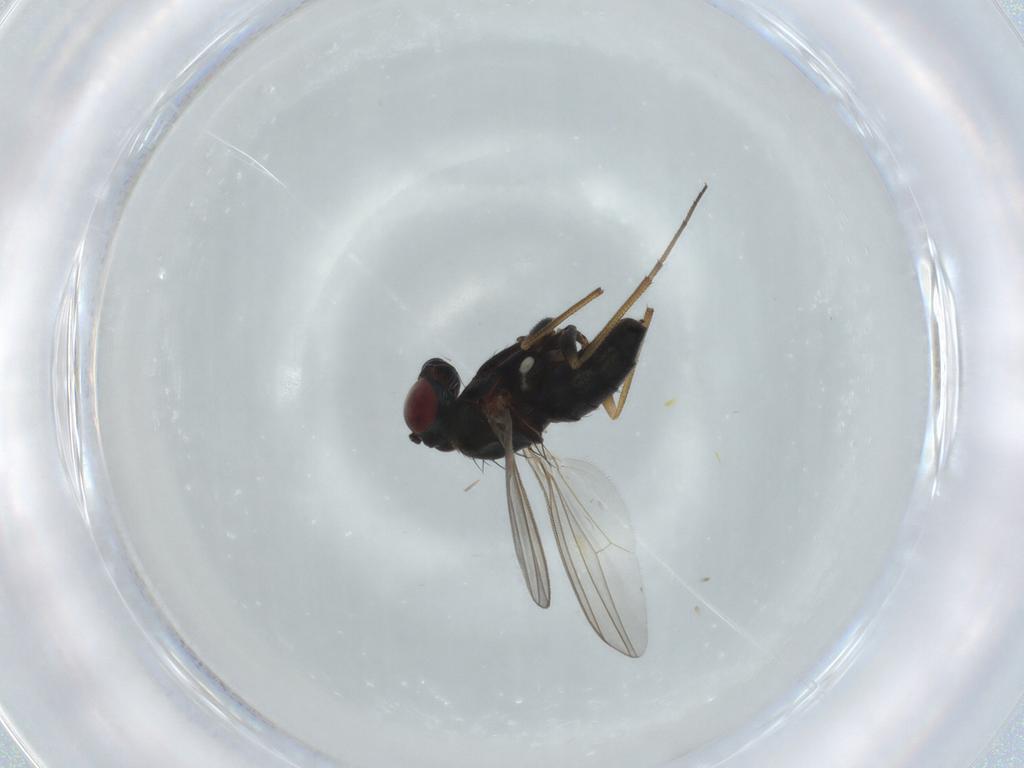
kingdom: Animalia
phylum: Arthropoda
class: Insecta
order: Diptera
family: Dolichopodidae
